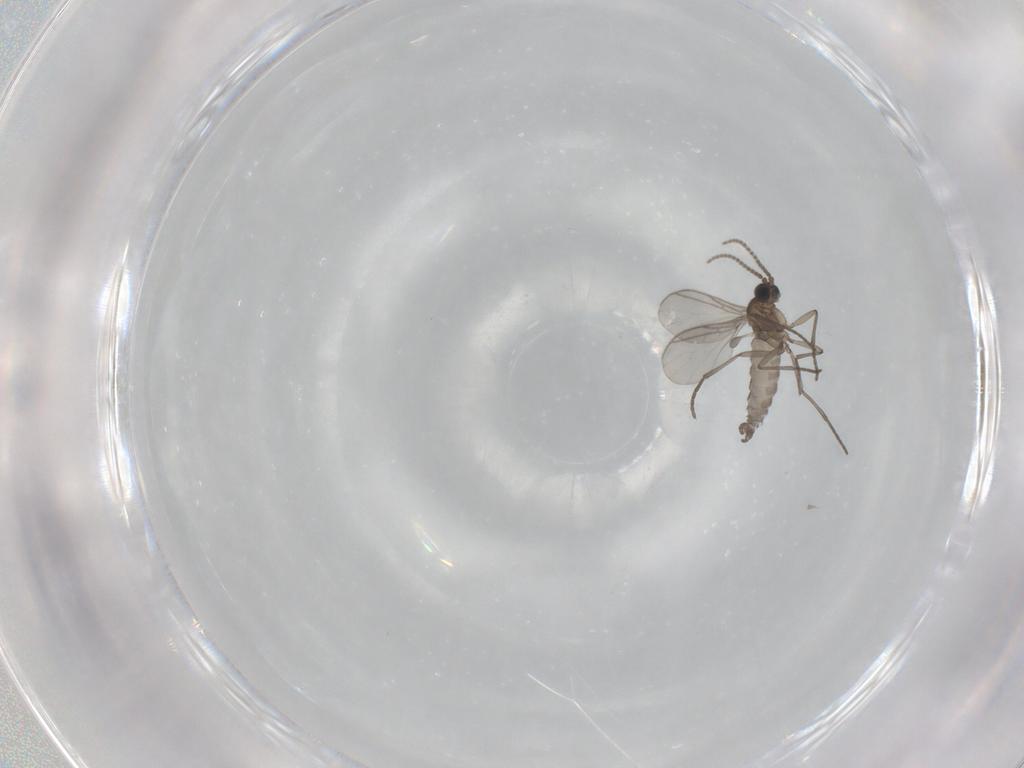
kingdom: Animalia
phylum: Arthropoda
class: Insecta
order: Diptera
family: Sciaridae
